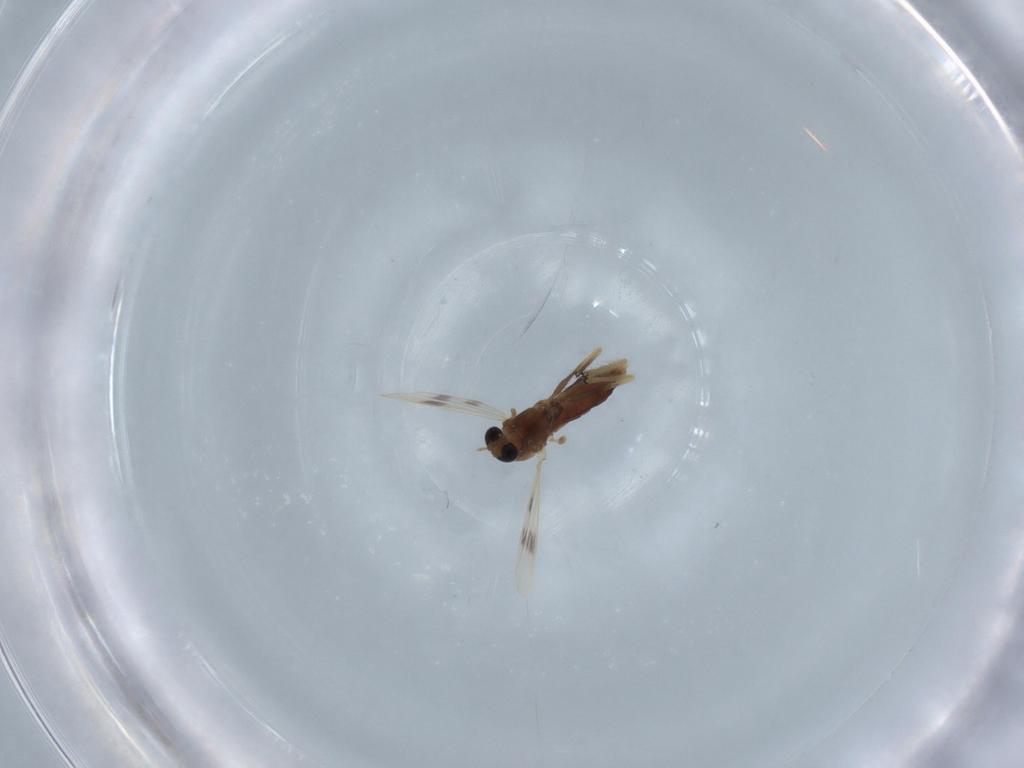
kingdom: Animalia
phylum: Arthropoda
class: Insecta
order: Diptera
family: Chironomidae
